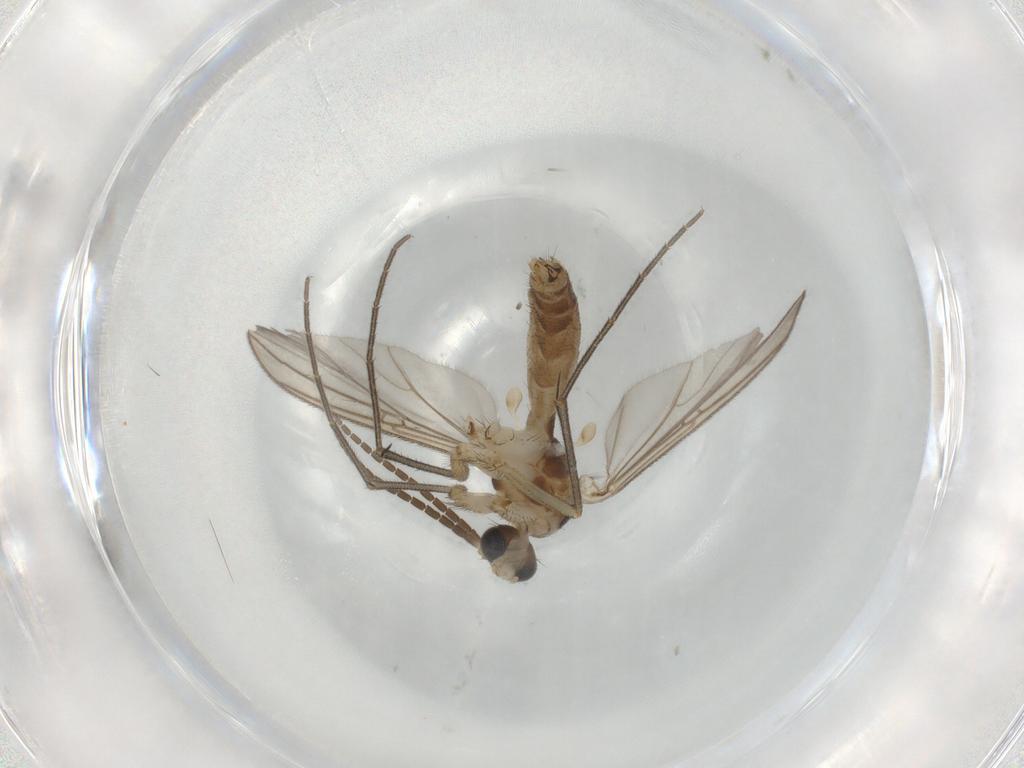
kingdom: Animalia
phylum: Arthropoda
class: Insecta
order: Diptera
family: Mycetophilidae
